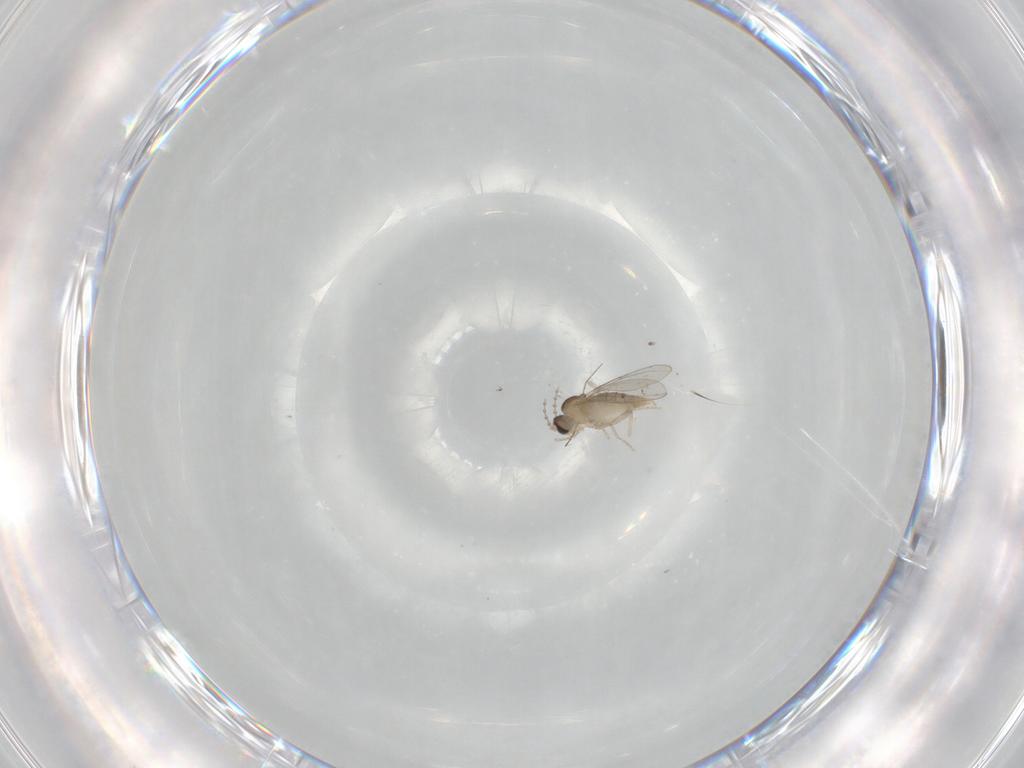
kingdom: Animalia
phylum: Arthropoda
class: Insecta
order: Diptera
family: Cecidomyiidae
